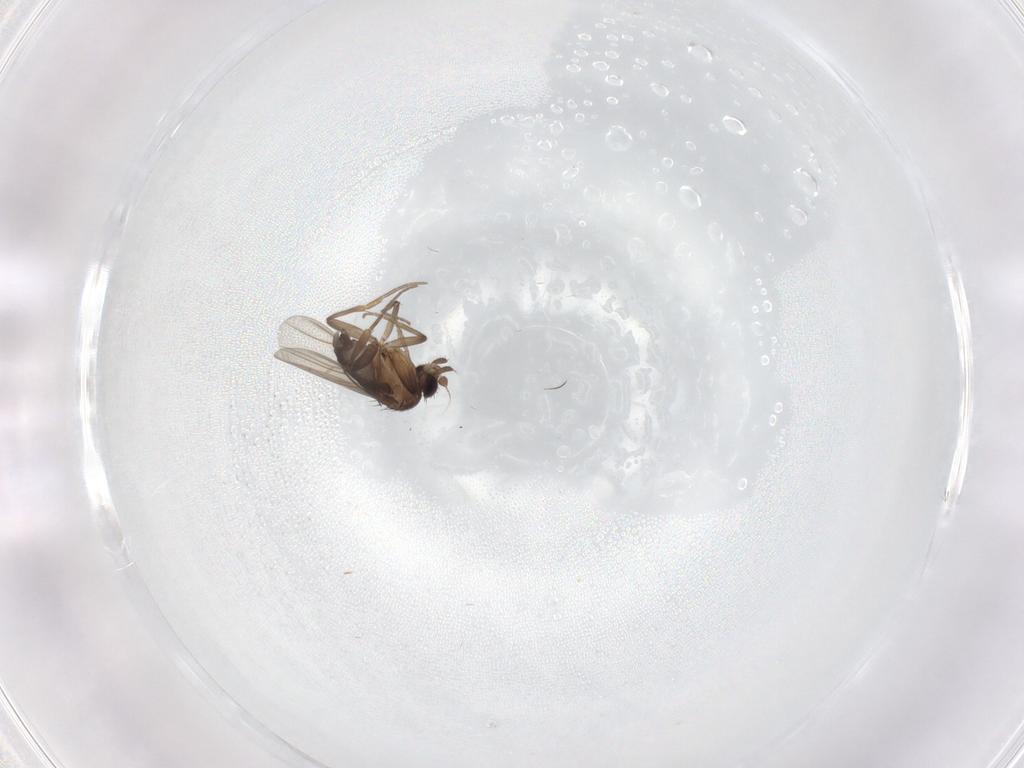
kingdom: Animalia
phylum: Arthropoda
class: Insecta
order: Diptera
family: Phoridae
